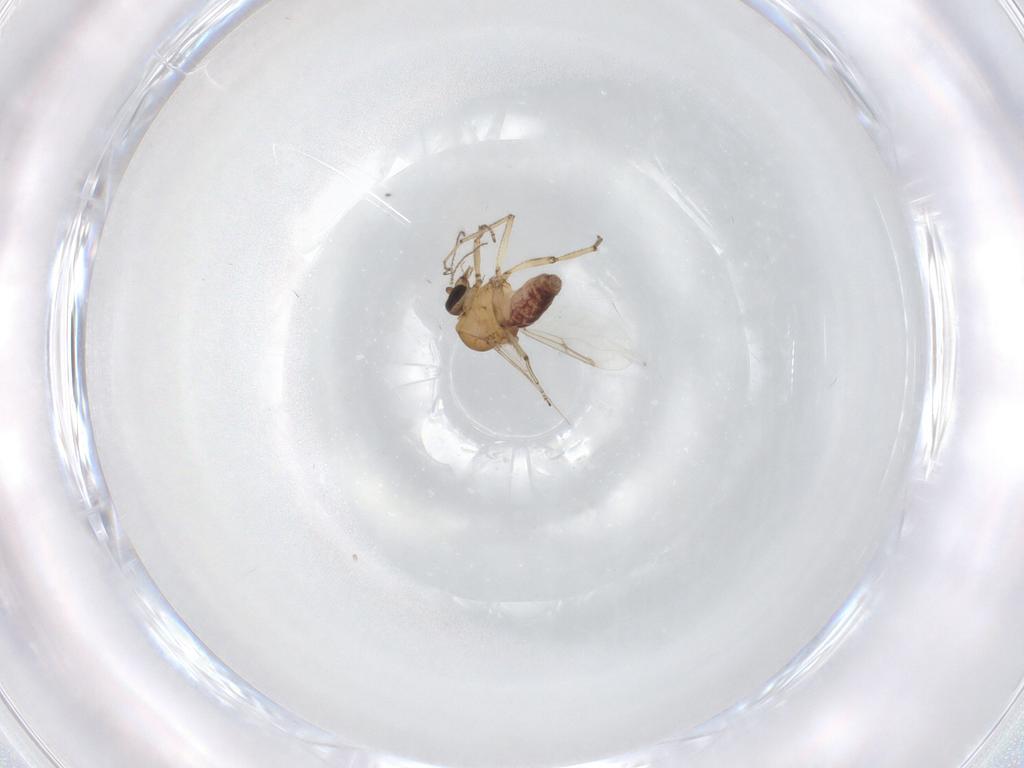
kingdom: Animalia
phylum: Arthropoda
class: Insecta
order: Diptera
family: Ceratopogonidae
